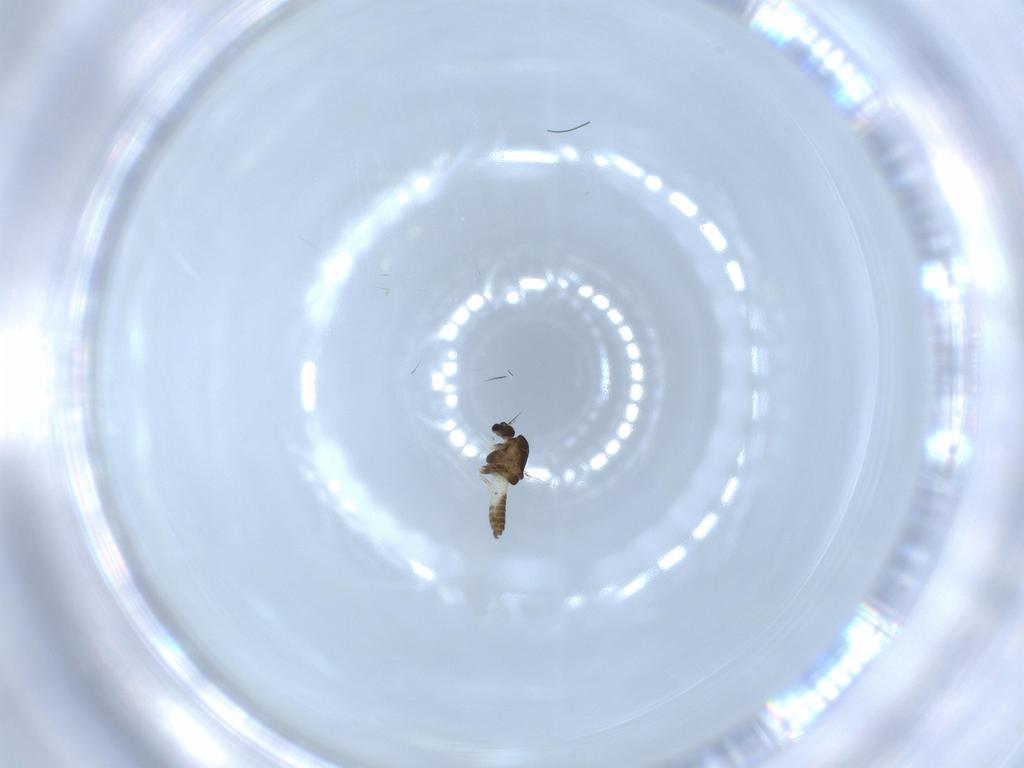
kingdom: Animalia
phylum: Arthropoda
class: Insecta
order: Diptera
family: Chironomidae
